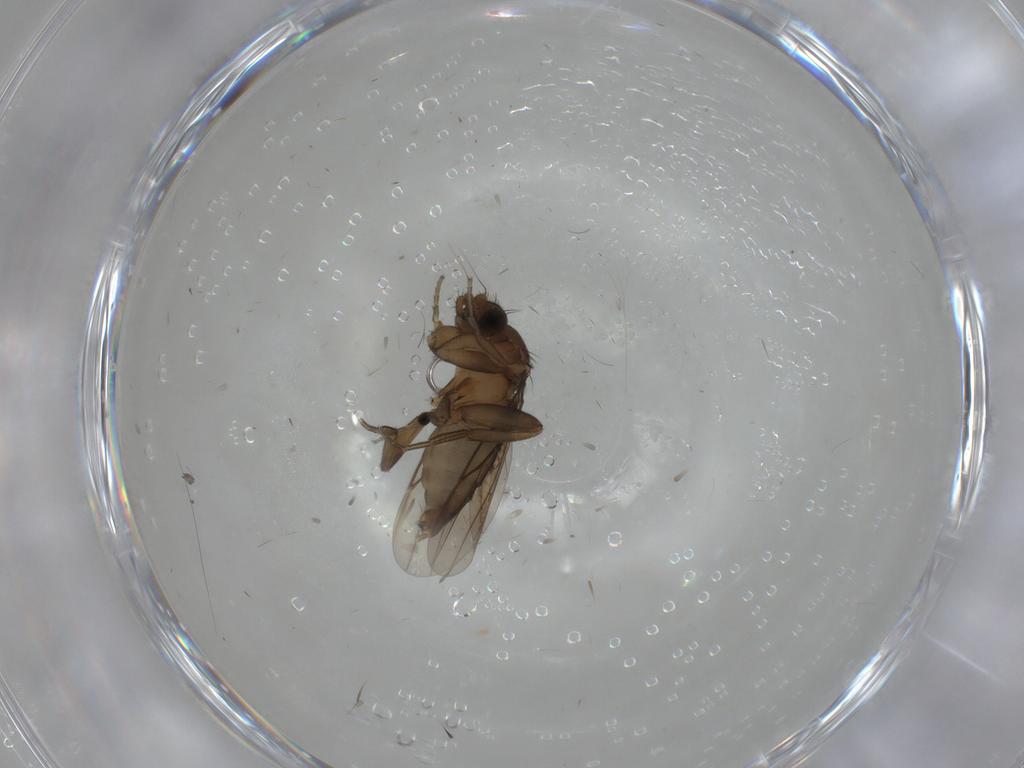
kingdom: Animalia
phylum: Arthropoda
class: Insecta
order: Diptera
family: Phoridae
